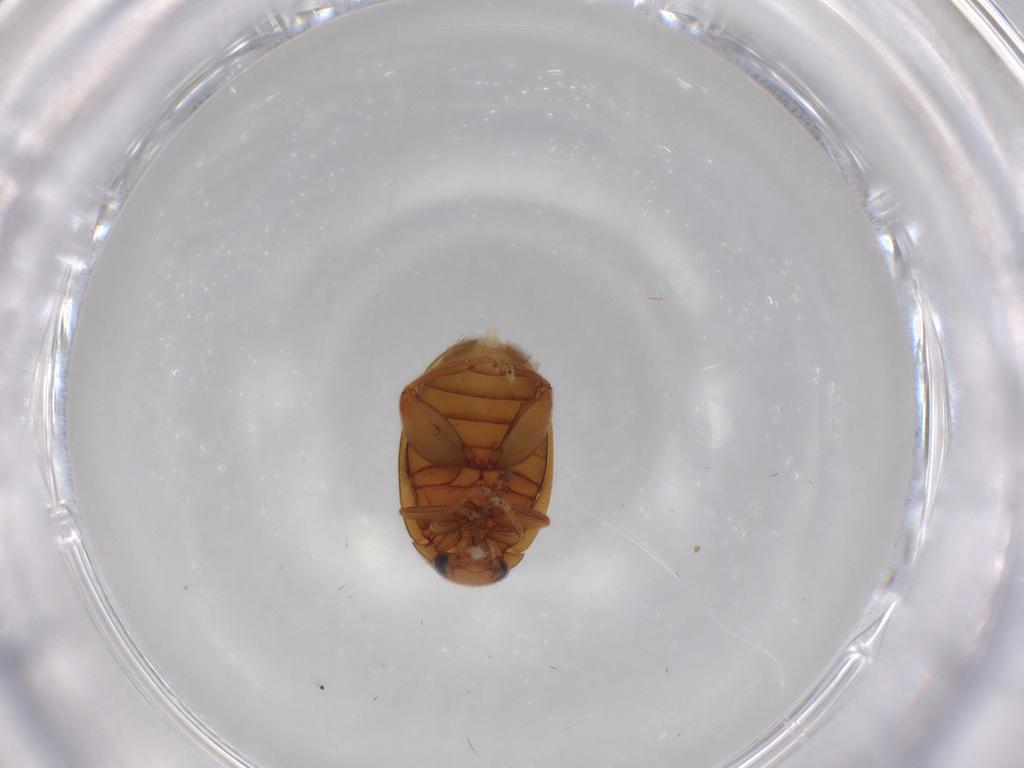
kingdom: Animalia
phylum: Arthropoda
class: Insecta
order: Coleoptera
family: Scirtidae
